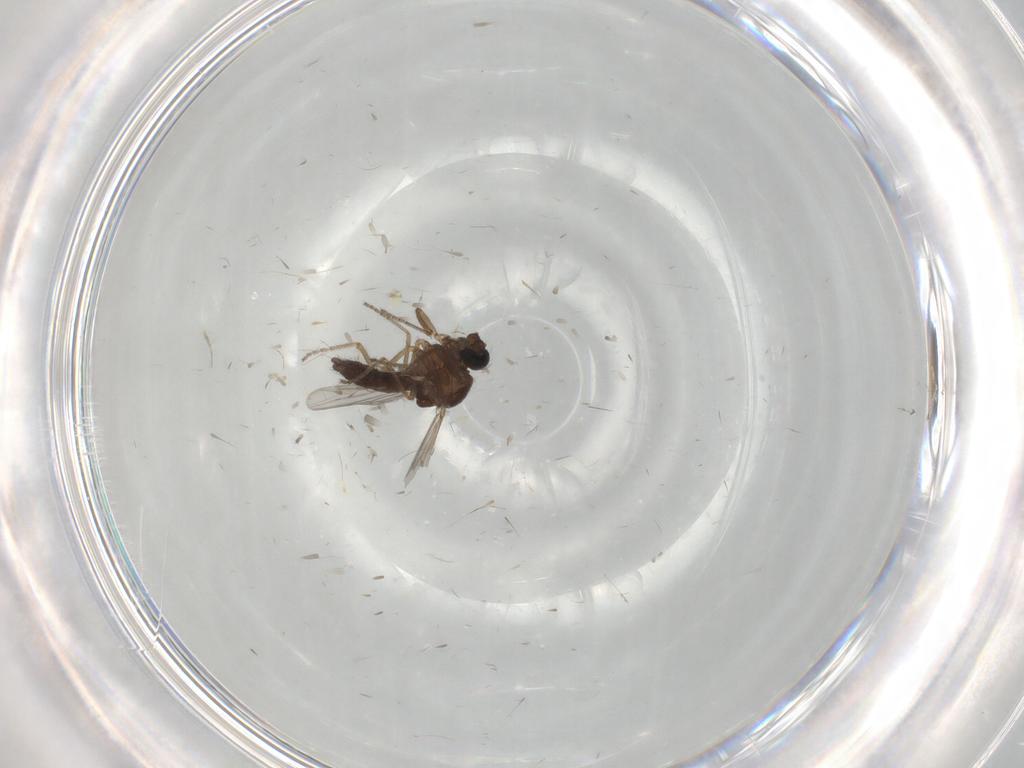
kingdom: Animalia
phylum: Arthropoda
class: Insecta
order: Diptera
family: Ceratopogonidae
